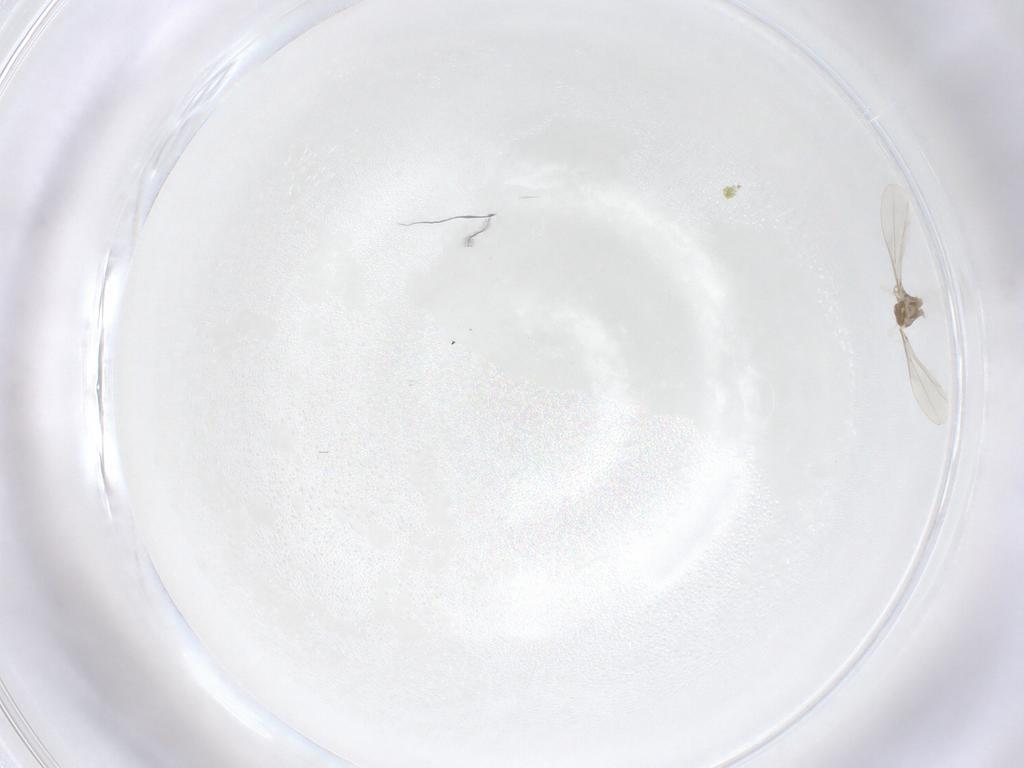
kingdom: Animalia
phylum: Arthropoda
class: Insecta
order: Diptera
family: Cecidomyiidae
